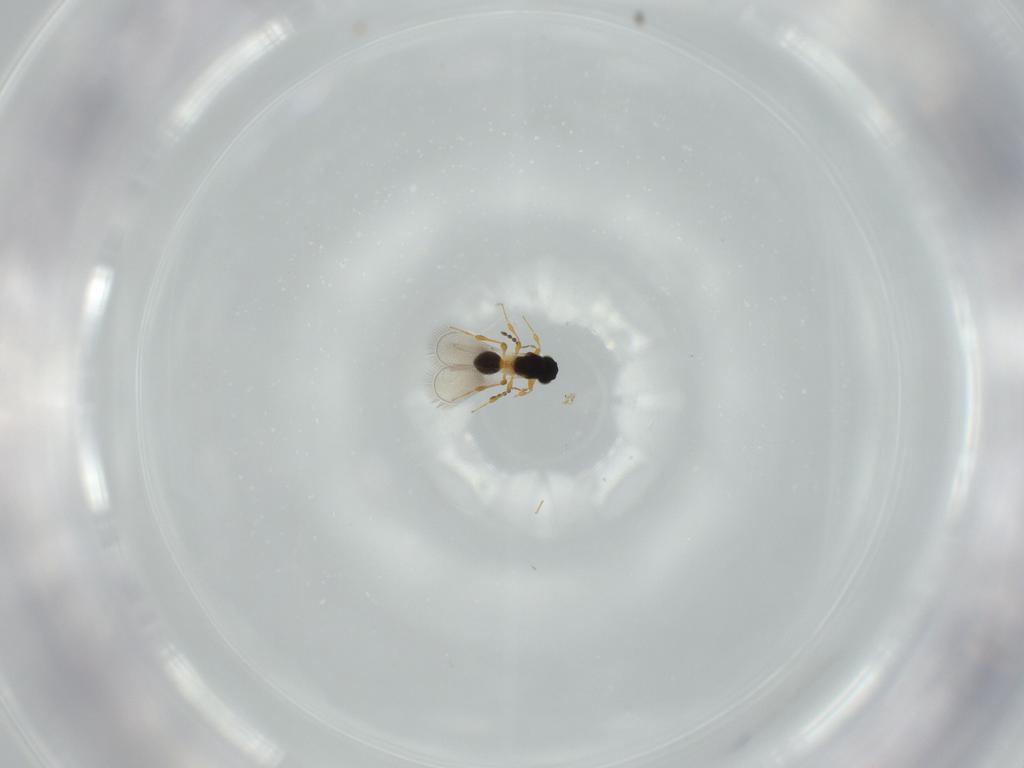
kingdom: Animalia
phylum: Arthropoda
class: Insecta
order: Hymenoptera
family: Platygastridae
